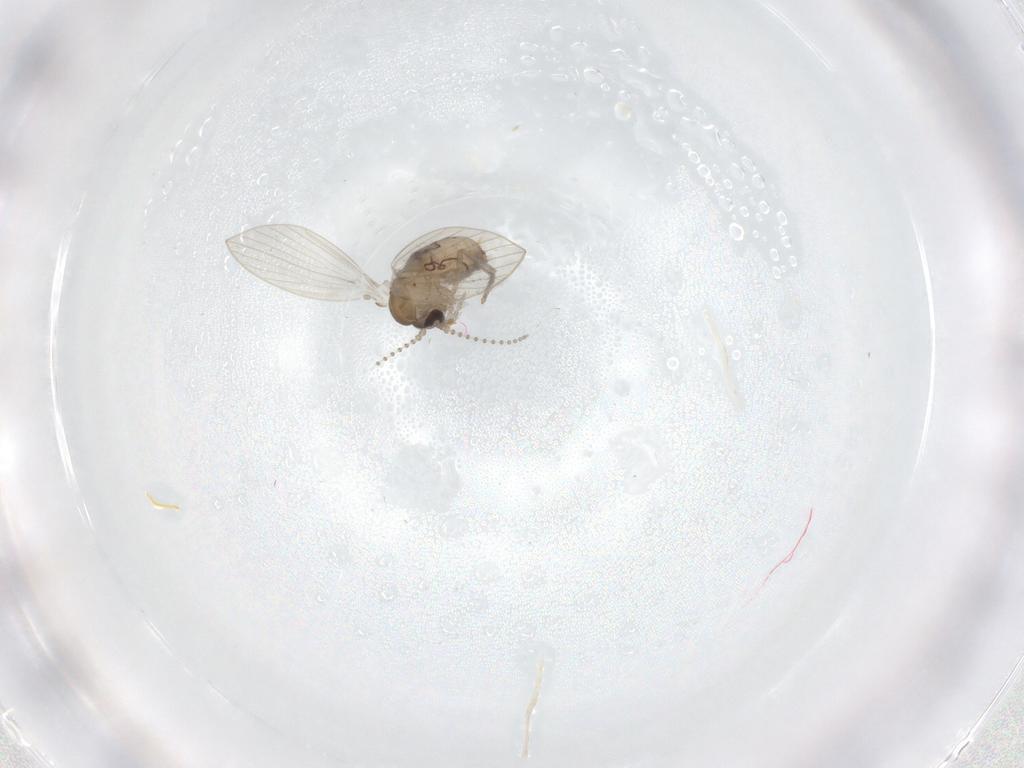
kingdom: Animalia
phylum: Arthropoda
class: Insecta
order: Diptera
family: Psychodidae
